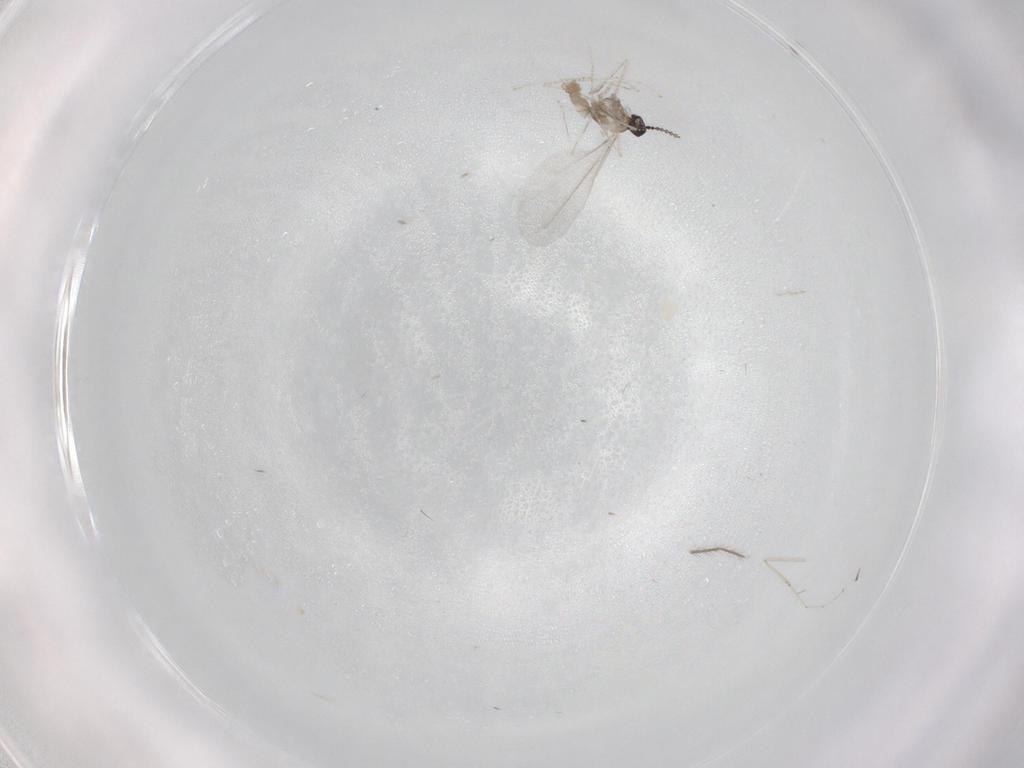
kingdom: Animalia
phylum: Arthropoda
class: Insecta
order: Diptera
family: Cecidomyiidae
